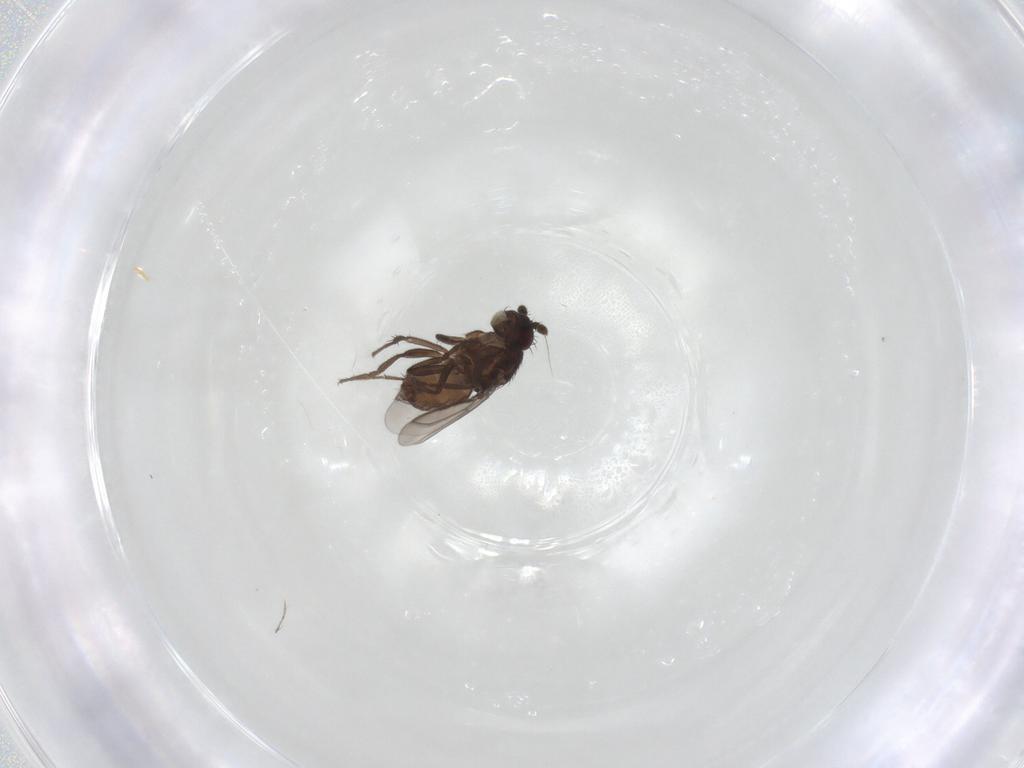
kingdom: Animalia
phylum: Arthropoda
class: Insecta
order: Diptera
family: Sphaeroceridae
